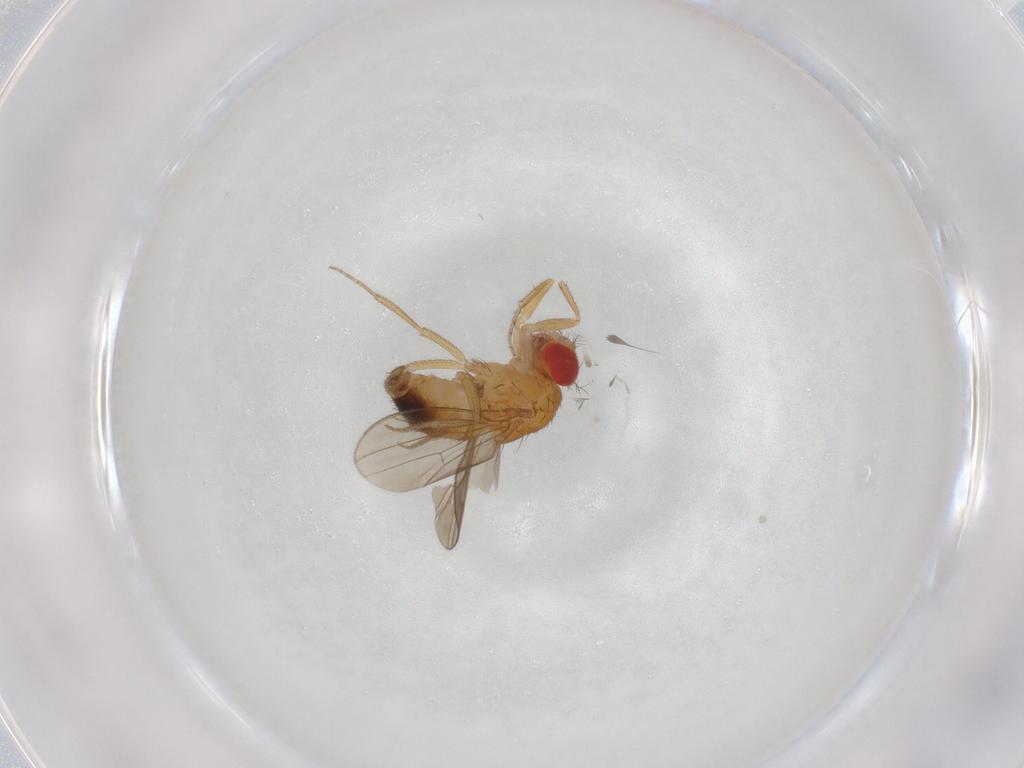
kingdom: Animalia
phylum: Arthropoda
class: Insecta
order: Diptera
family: Drosophilidae
